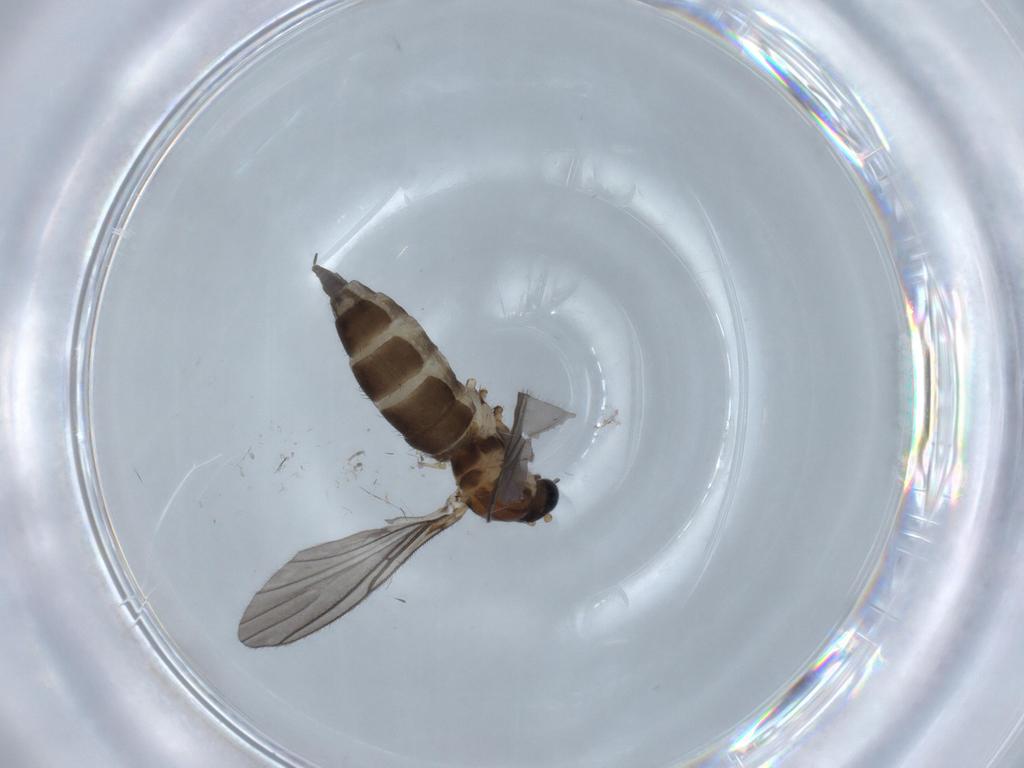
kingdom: Animalia
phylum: Arthropoda
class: Insecta
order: Diptera
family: Sciaridae
